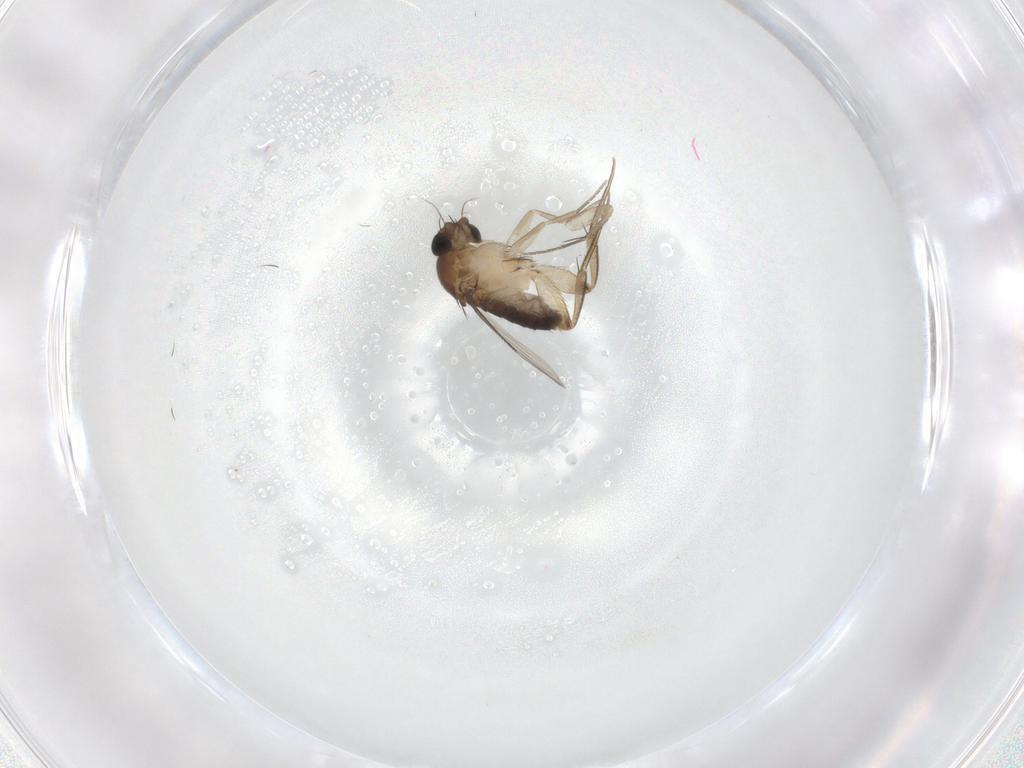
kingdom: Animalia
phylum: Arthropoda
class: Insecta
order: Diptera
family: Phoridae
